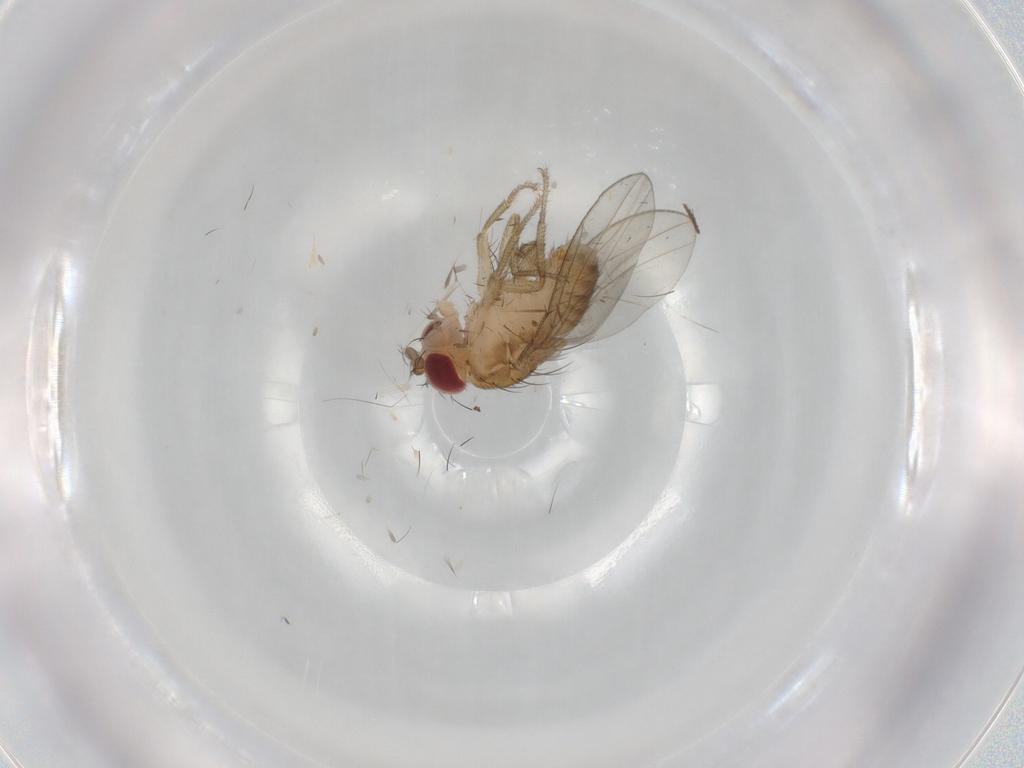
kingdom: Animalia
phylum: Arthropoda
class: Insecta
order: Diptera
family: Drosophilidae
